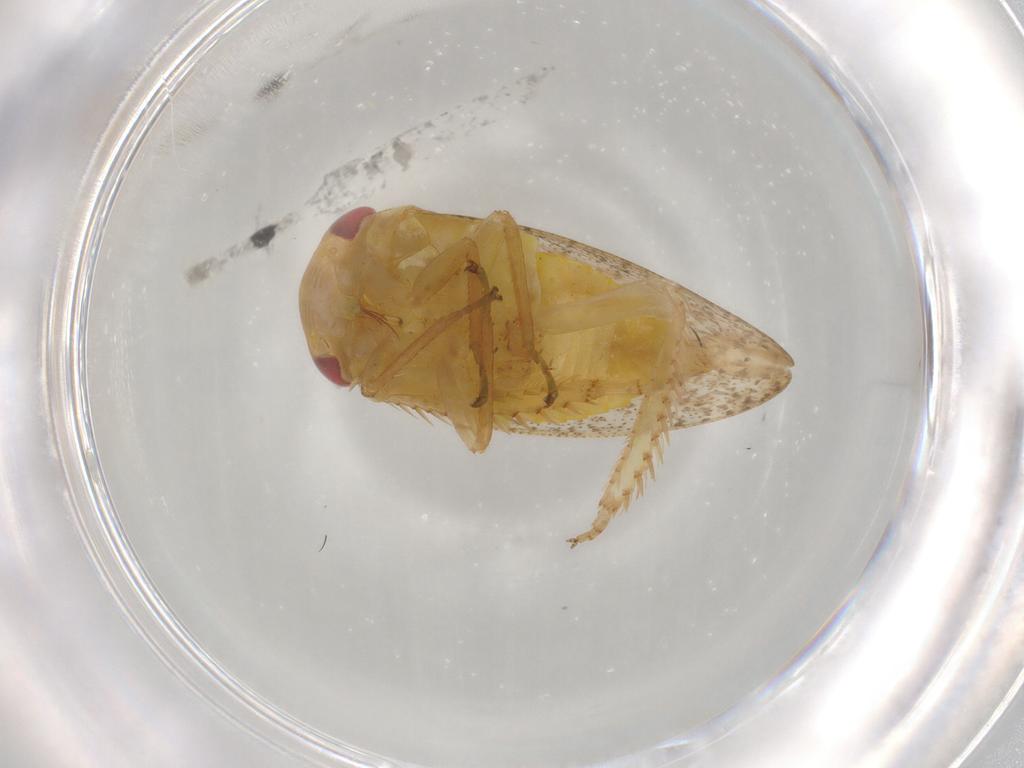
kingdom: Animalia
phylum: Arthropoda
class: Insecta
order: Hemiptera
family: Cicadellidae
